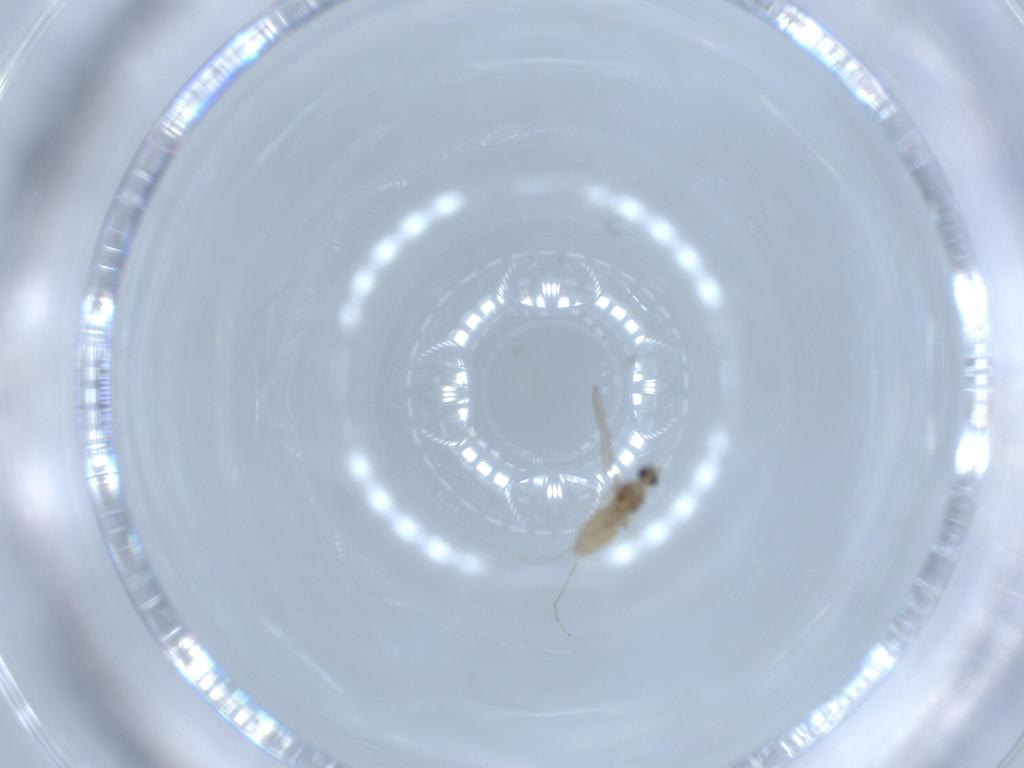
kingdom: Animalia
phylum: Arthropoda
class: Insecta
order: Diptera
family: Cecidomyiidae
